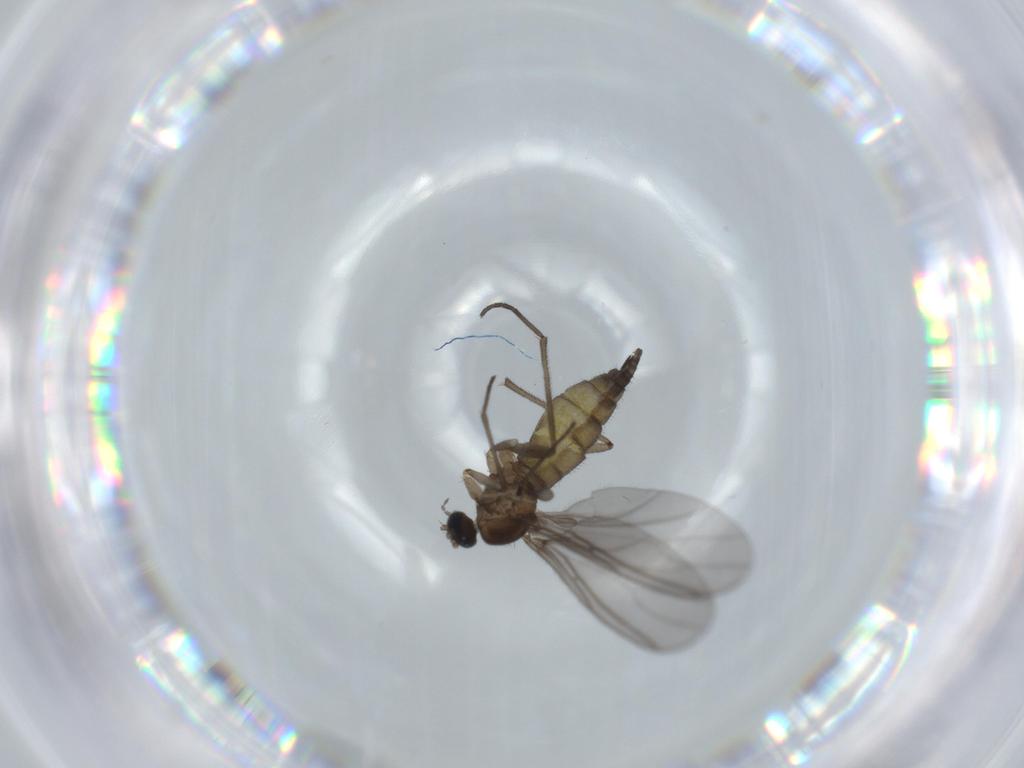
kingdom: Animalia
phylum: Arthropoda
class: Insecta
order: Diptera
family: Sciaridae
